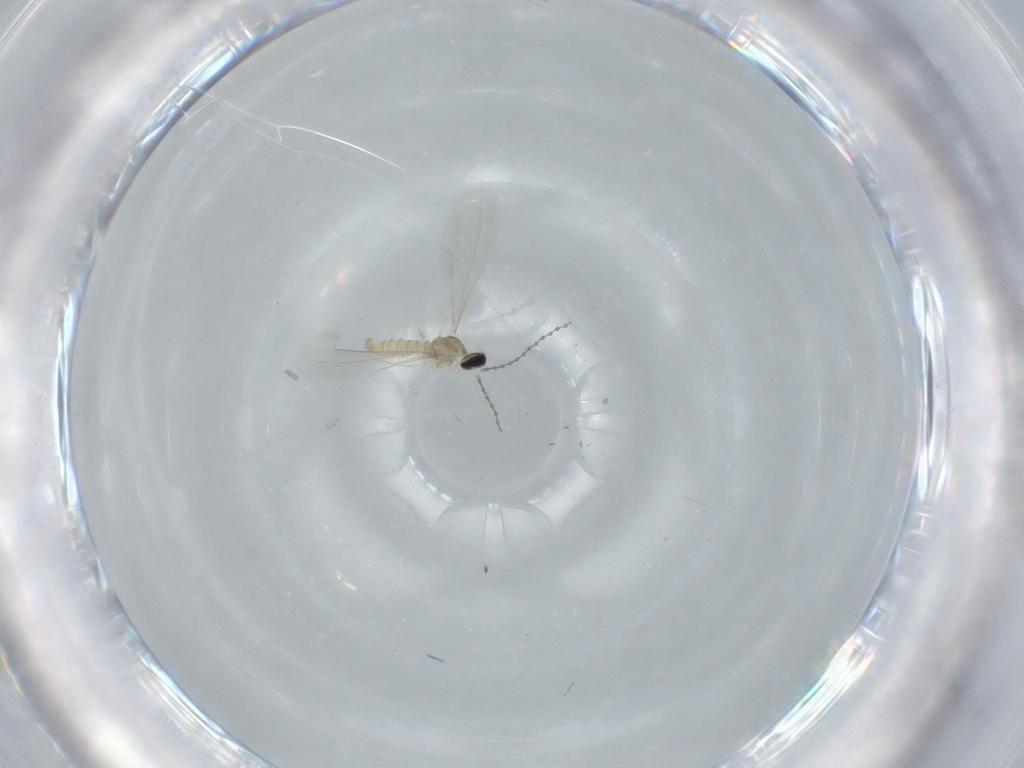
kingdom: Animalia
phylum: Arthropoda
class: Insecta
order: Diptera
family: Cecidomyiidae
